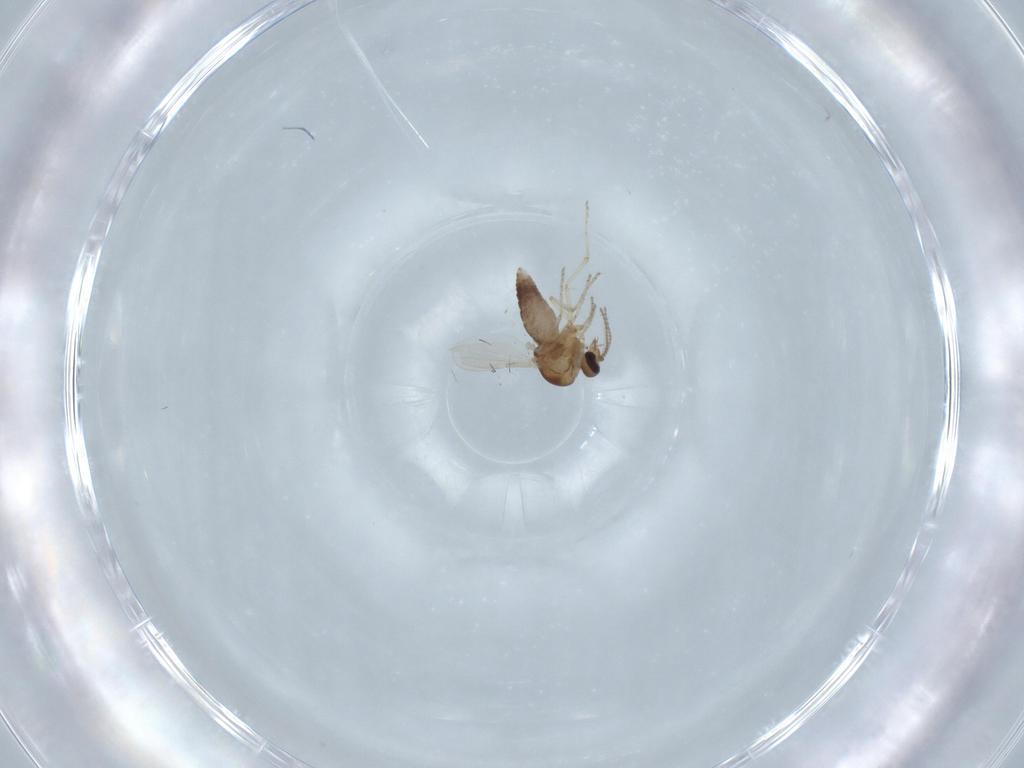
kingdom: Animalia
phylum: Arthropoda
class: Insecta
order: Diptera
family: Ceratopogonidae
